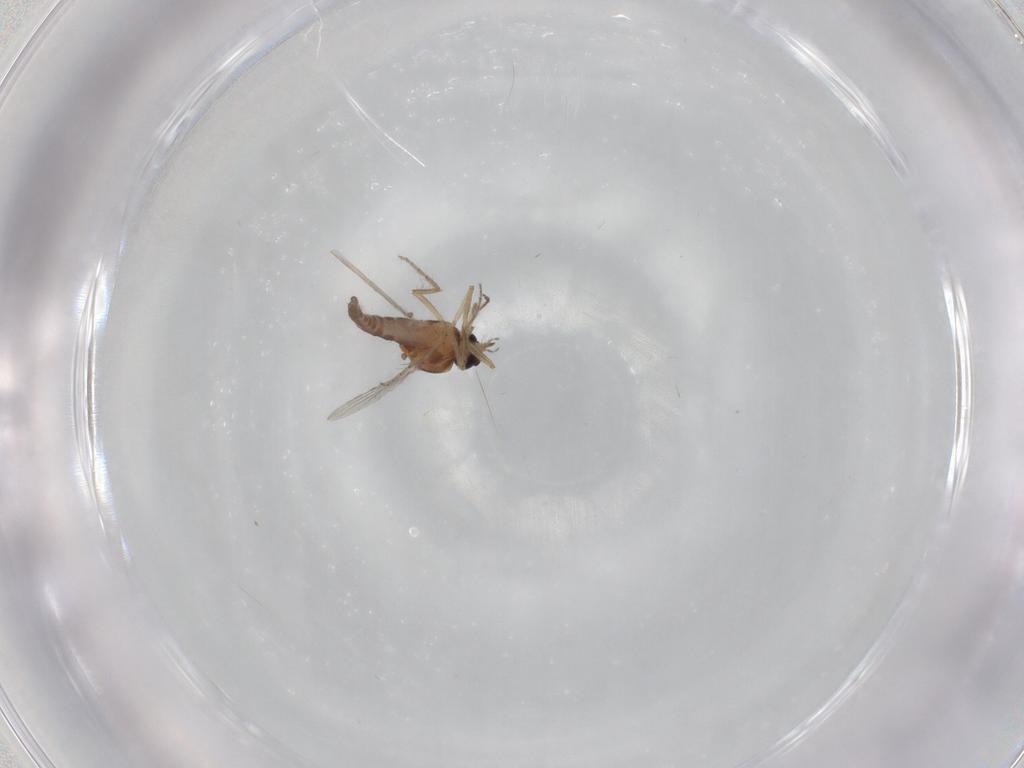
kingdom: Animalia
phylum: Arthropoda
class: Insecta
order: Diptera
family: Ceratopogonidae
